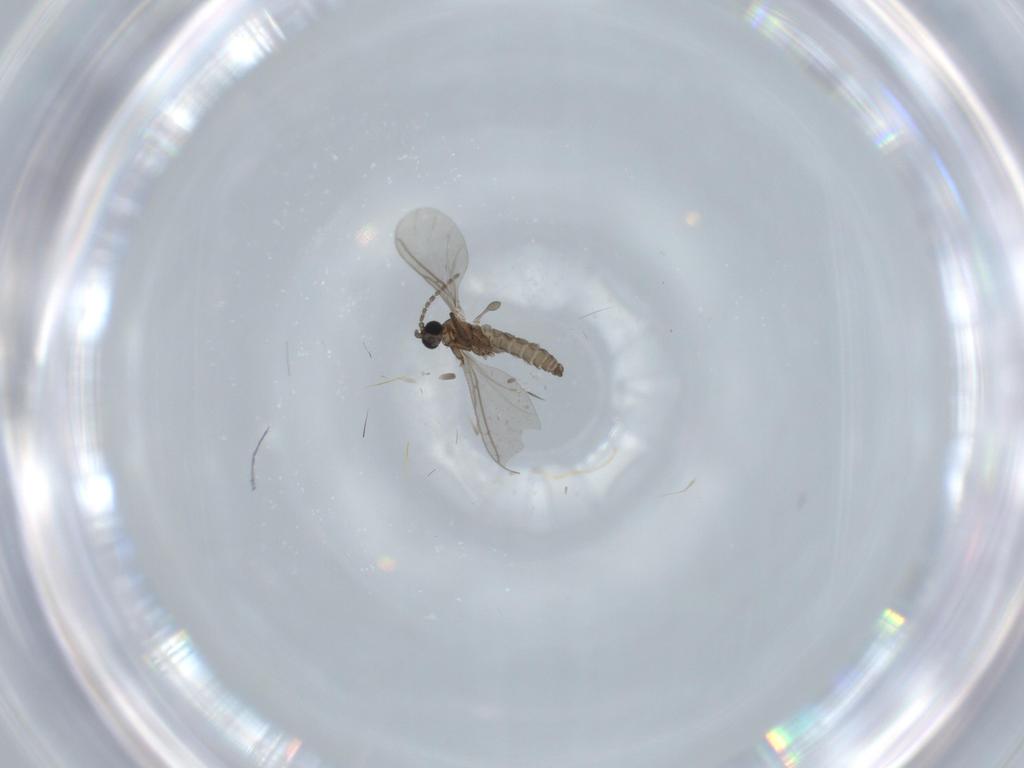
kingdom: Animalia
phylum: Arthropoda
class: Insecta
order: Diptera
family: Sciaridae
